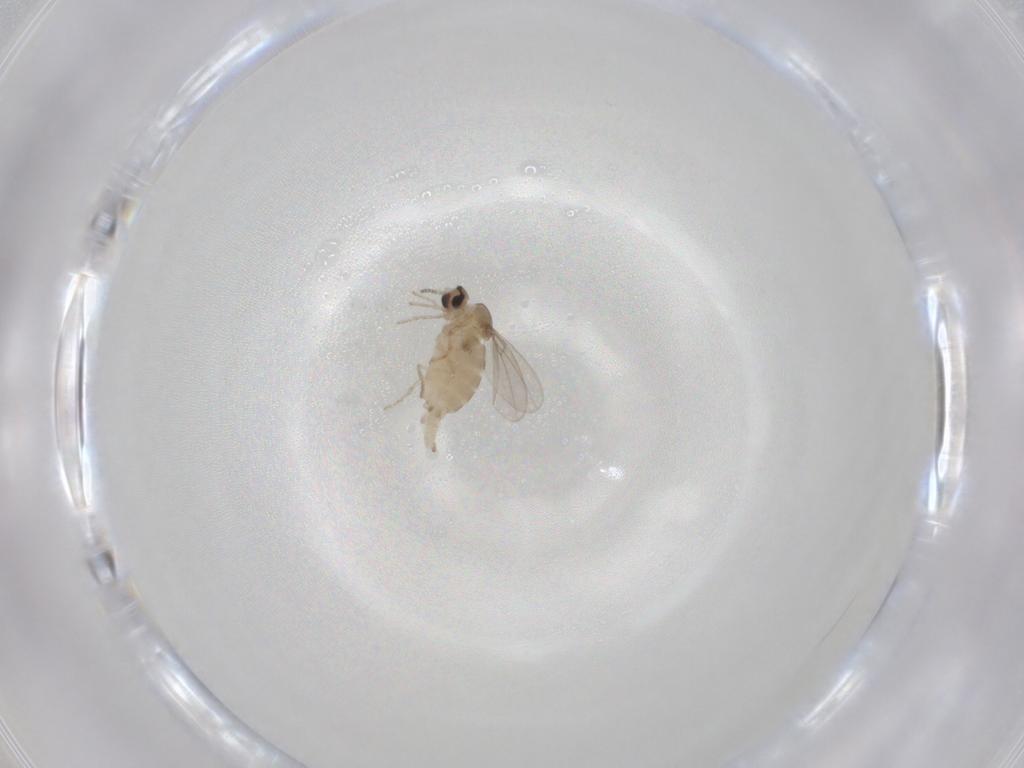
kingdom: Animalia
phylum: Arthropoda
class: Insecta
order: Diptera
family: Cecidomyiidae
